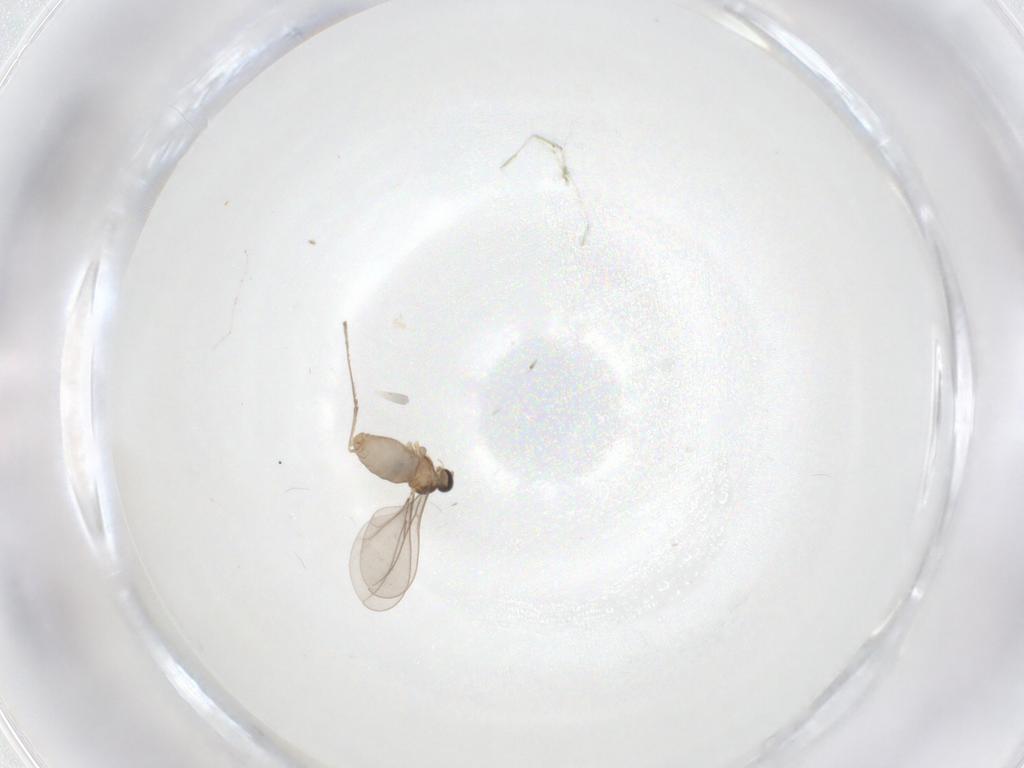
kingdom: Animalia
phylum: Arthropoda
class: Insecta
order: Diptera
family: Cecidomyiidae
